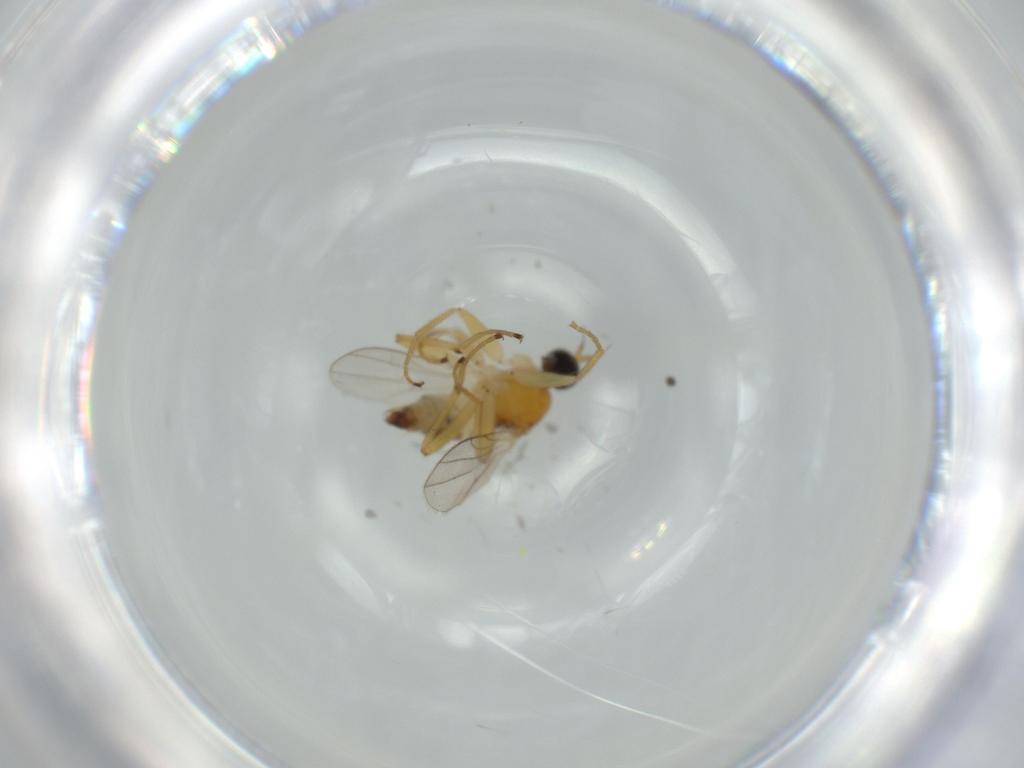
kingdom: Animalia
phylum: Arthropoda
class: Insecta
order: Diptera
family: Hybotidae
